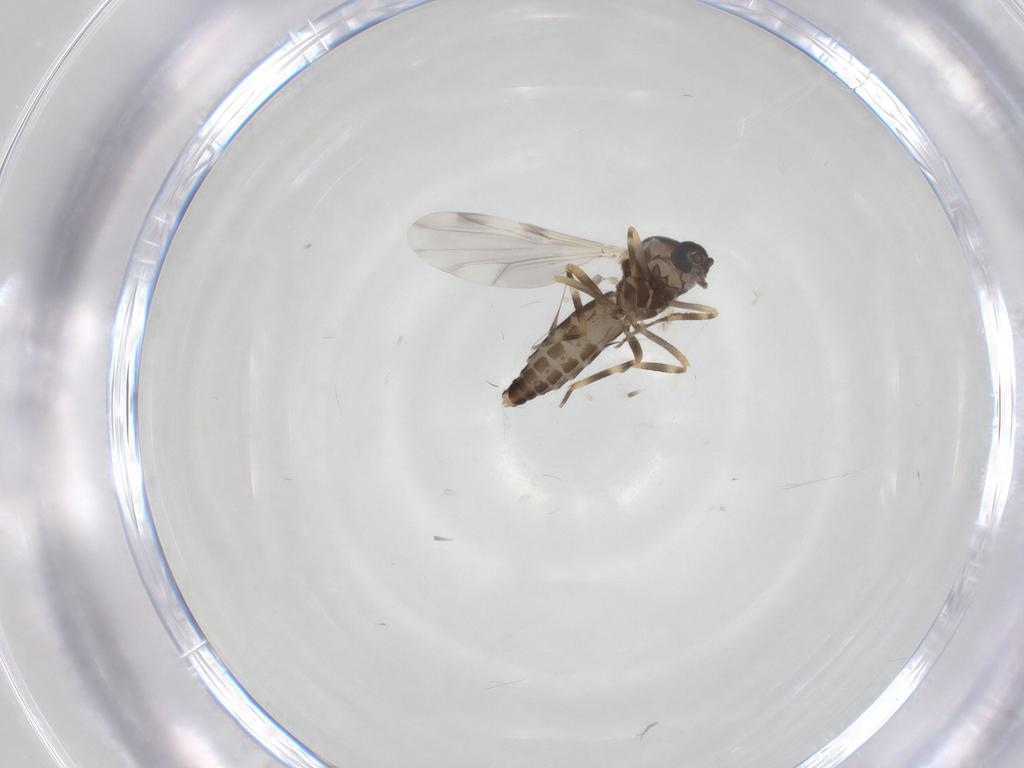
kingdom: Animalia
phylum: Arthropoda
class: Insecta
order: Diptera
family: Ceratopogonidae
